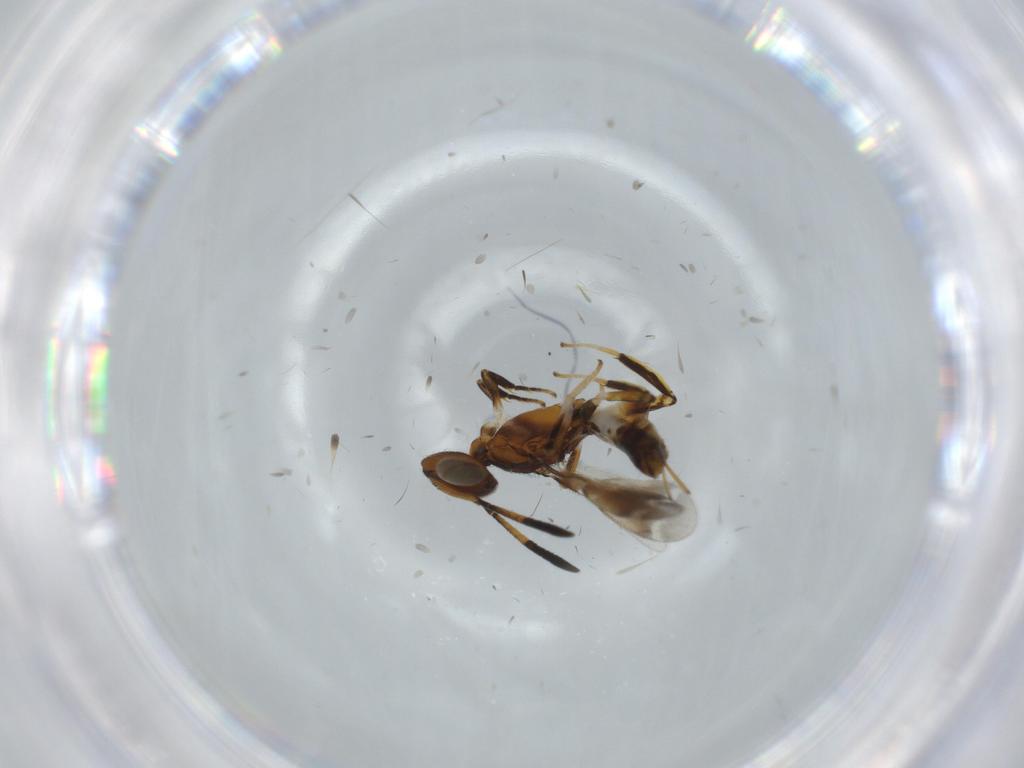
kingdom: Animalia
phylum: Arthropoda
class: Insecta
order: Hymenoptera
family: Eupelmidae
